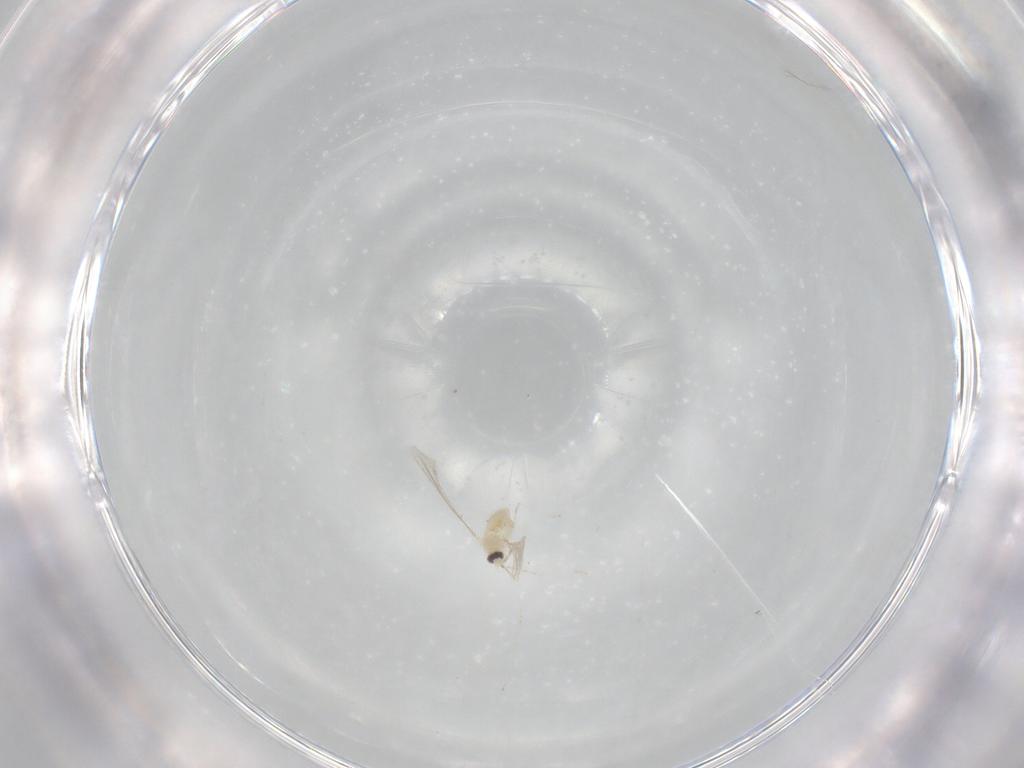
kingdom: Animalia
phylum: Arthropoda
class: Insecta
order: Diptera
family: Cecidomyiidae
